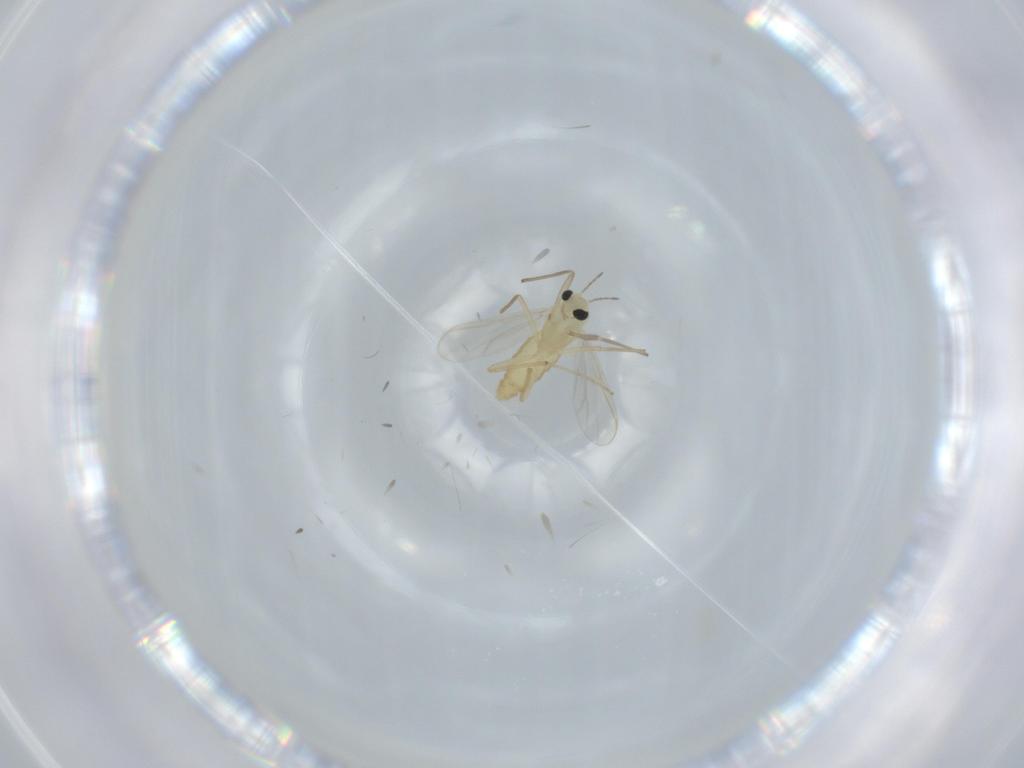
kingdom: Animalia
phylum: Arthropoda
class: Insecta
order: Diptera
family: Chironomidae
